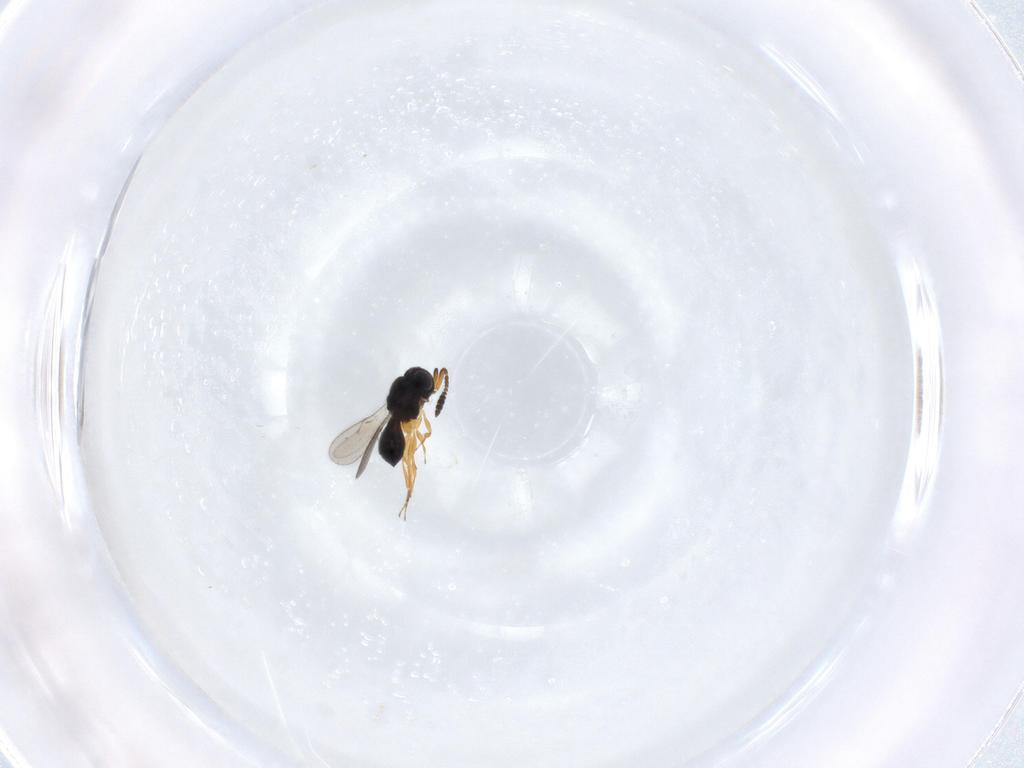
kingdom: Animalia
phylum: Arthropoda
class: Insecta
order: Hymenoptera
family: Scelionidae
